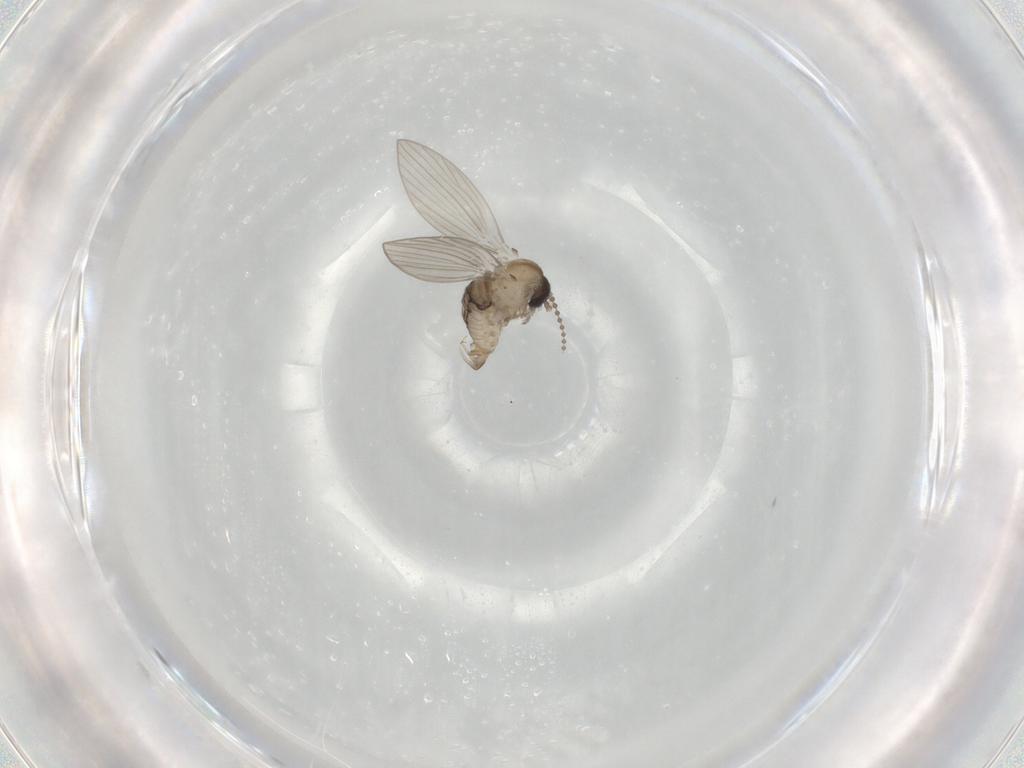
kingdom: Animalia
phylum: Arthropoda
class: Insecta
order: Diptera
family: Psychodidae
